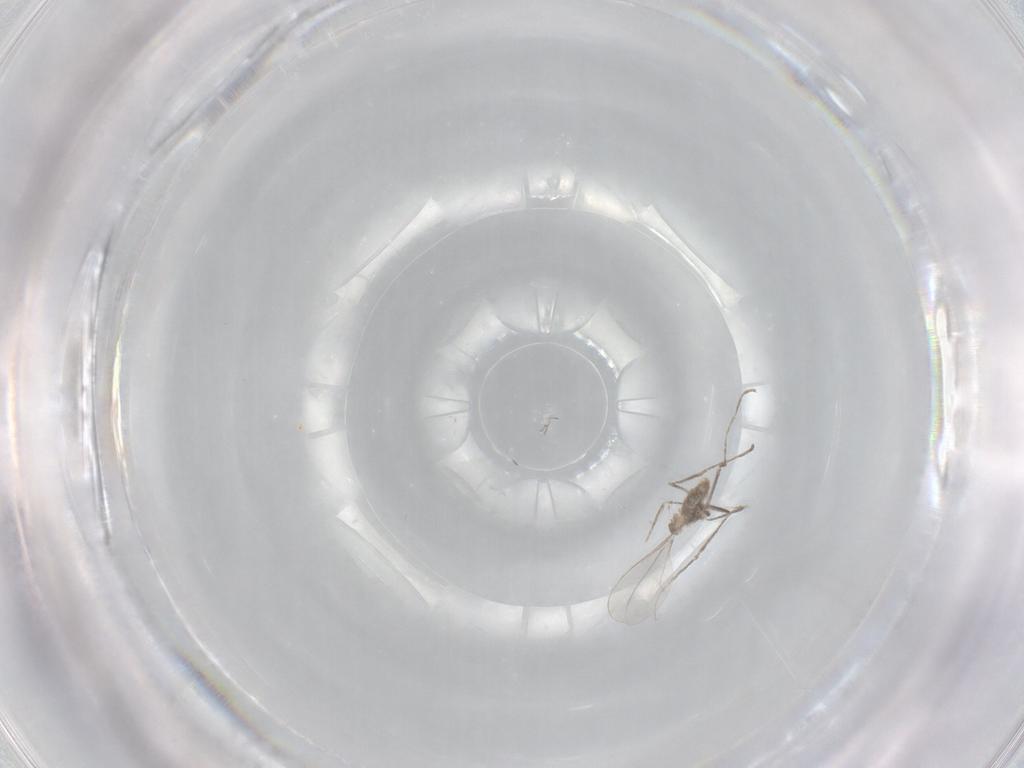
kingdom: Animalia
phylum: Arthropoda
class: Insecta
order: Diptera
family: Cecidomyiidae
